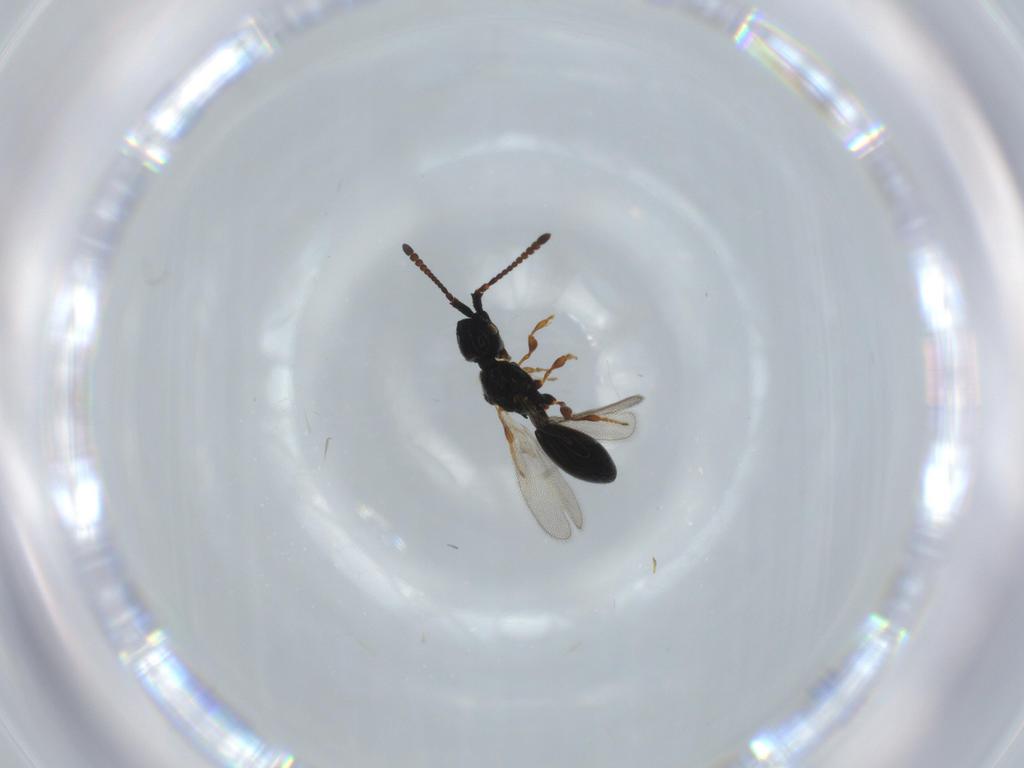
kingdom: Animalia
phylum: Arthropoda
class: Insecta
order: Hymenoptera
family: Diapriidae
